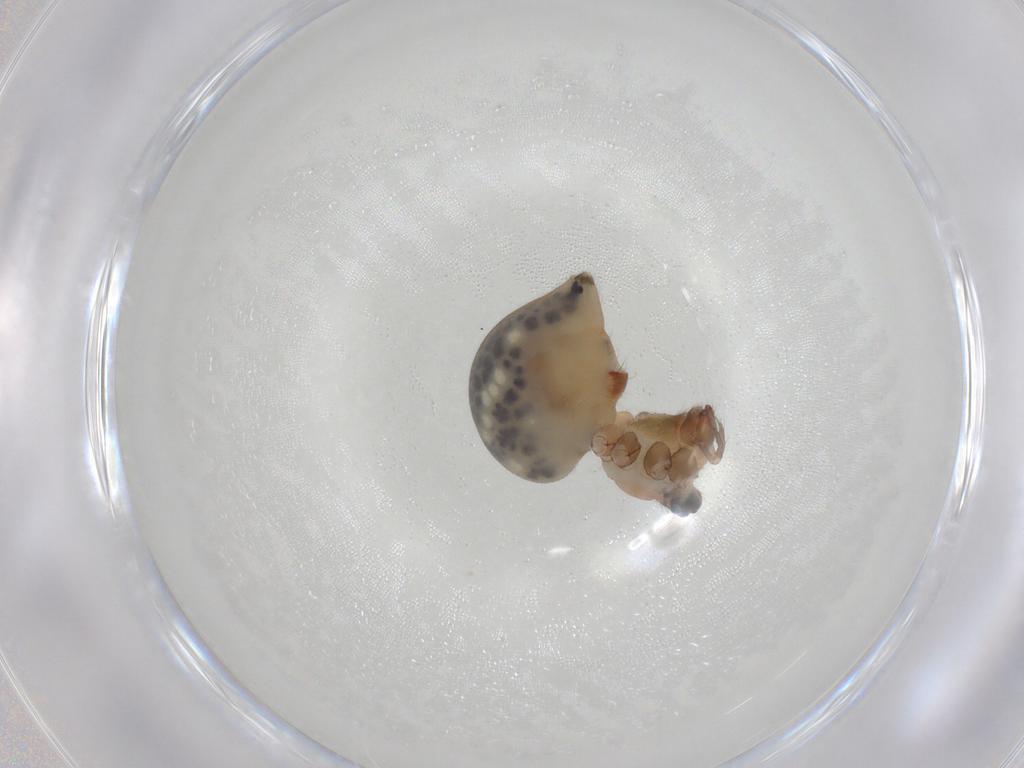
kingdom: Animalia
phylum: Arthropoda
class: Arachnida
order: Araneae
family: Pholcidae
